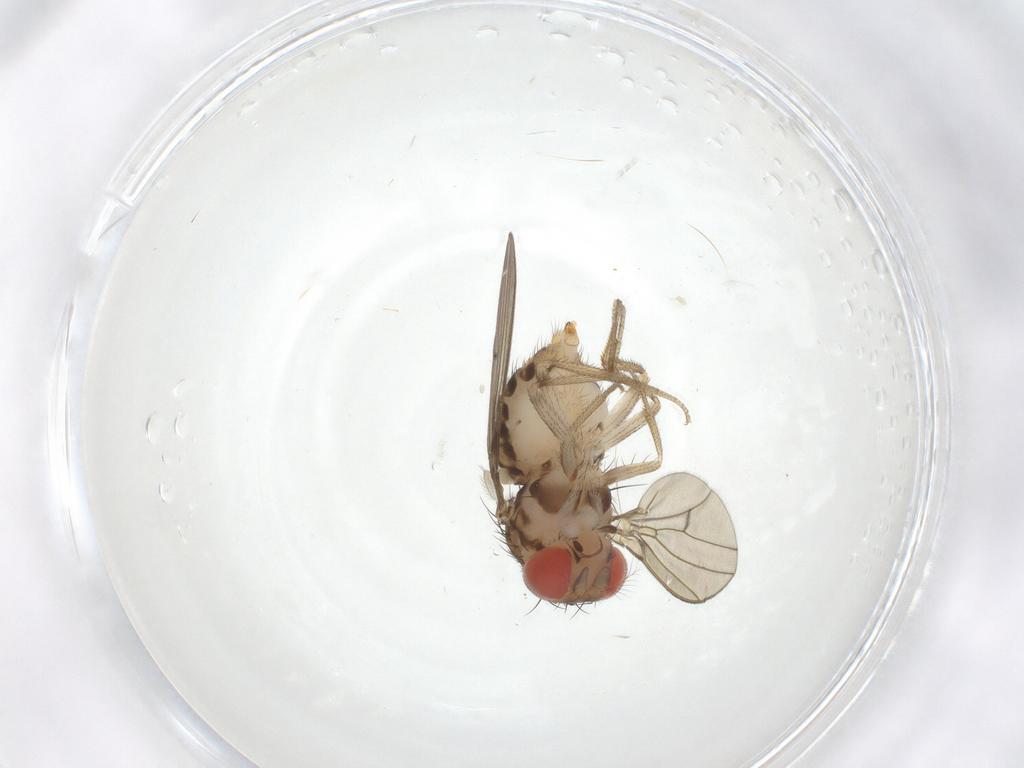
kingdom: Animalia
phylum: Arthropoda
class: Insecta
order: Diptera
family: Drosophilidae
